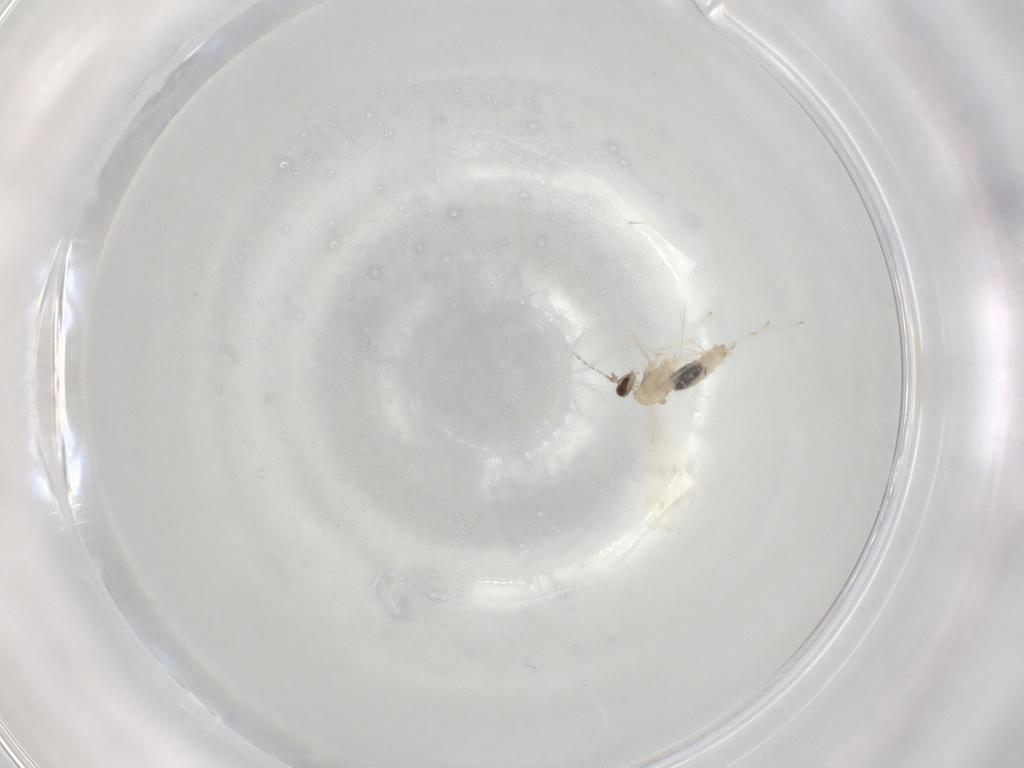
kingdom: Animalia
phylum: Arthropoda
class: Insecta
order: Diptera
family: Cecidomyiidae
